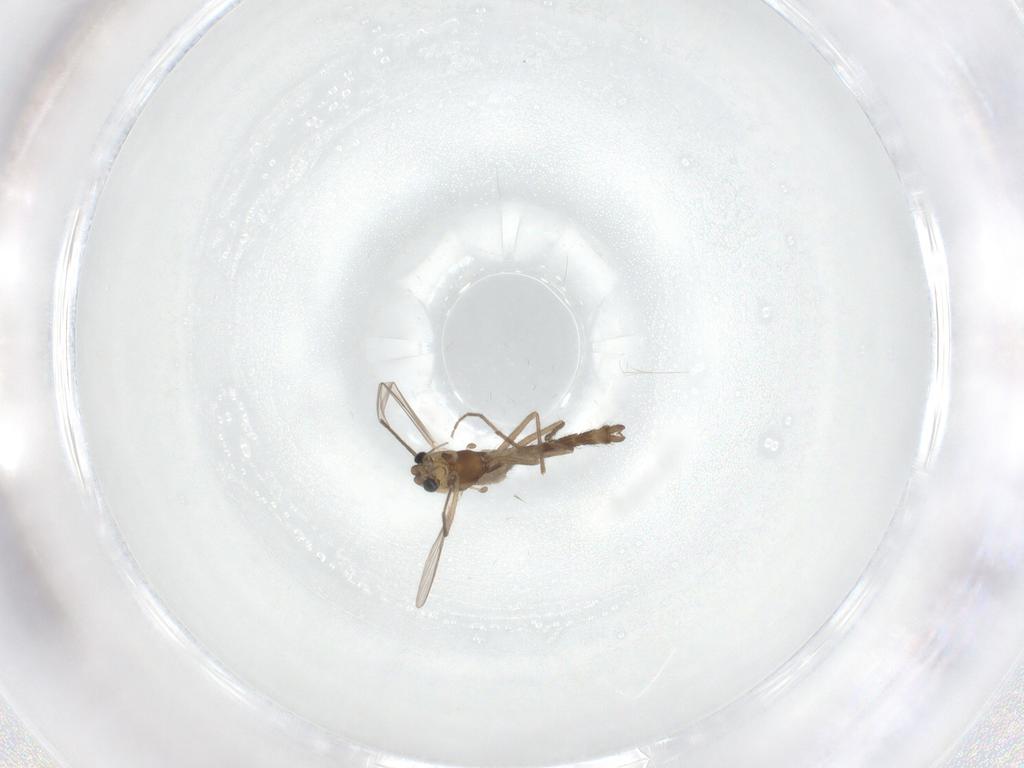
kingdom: Animalia
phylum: Arthropoda
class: Insecta
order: Diptera
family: Chironomidae
